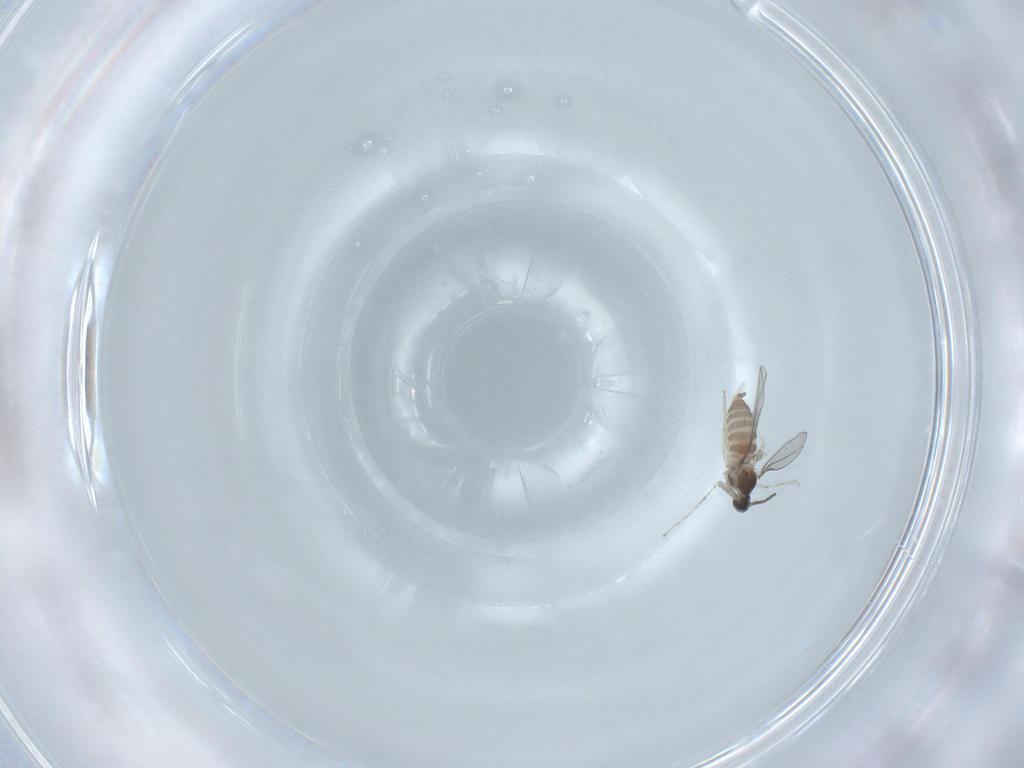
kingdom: Animalia
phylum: Arthropoda
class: Insecta
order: Diptera
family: Cecidomyiidae
